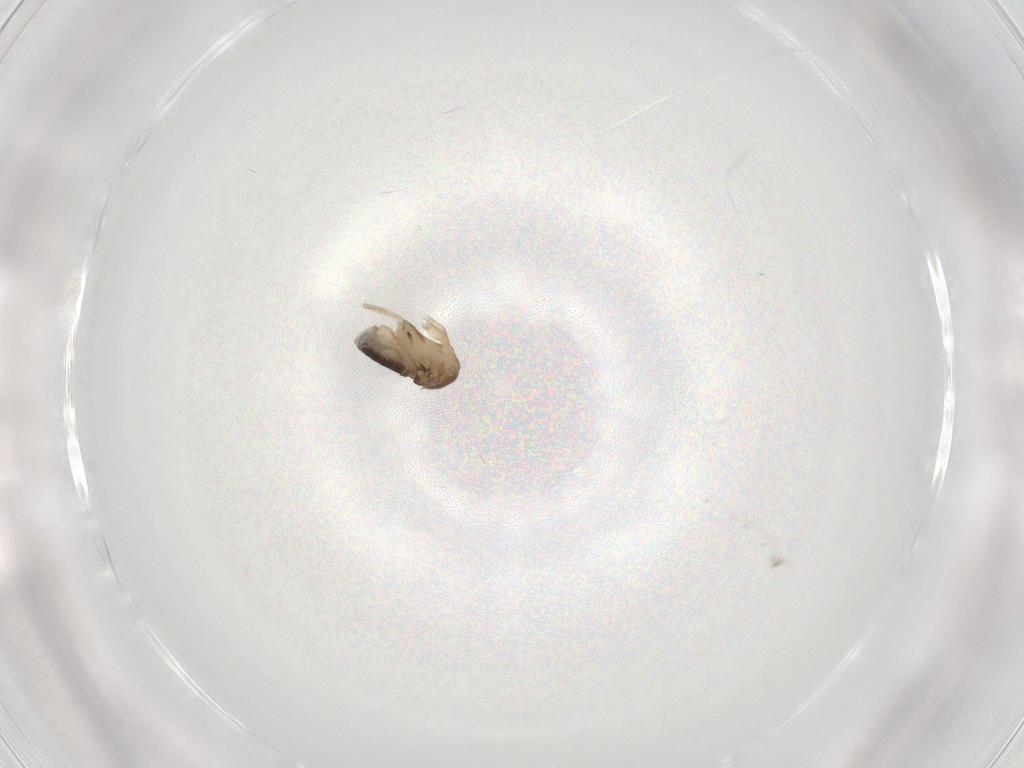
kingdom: Animalia
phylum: Arthropoda
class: Insecta
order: Diptera
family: Phoridae
